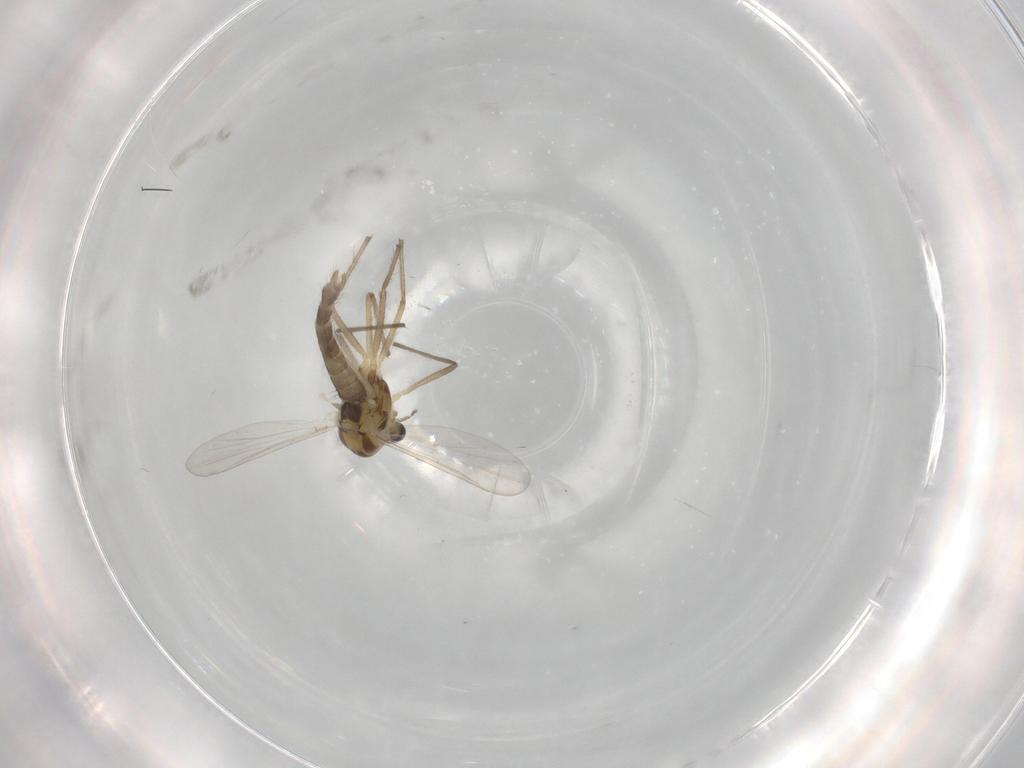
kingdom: Animalia
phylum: Arthropoda
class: Insecta
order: Diptera
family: Chironomidae
